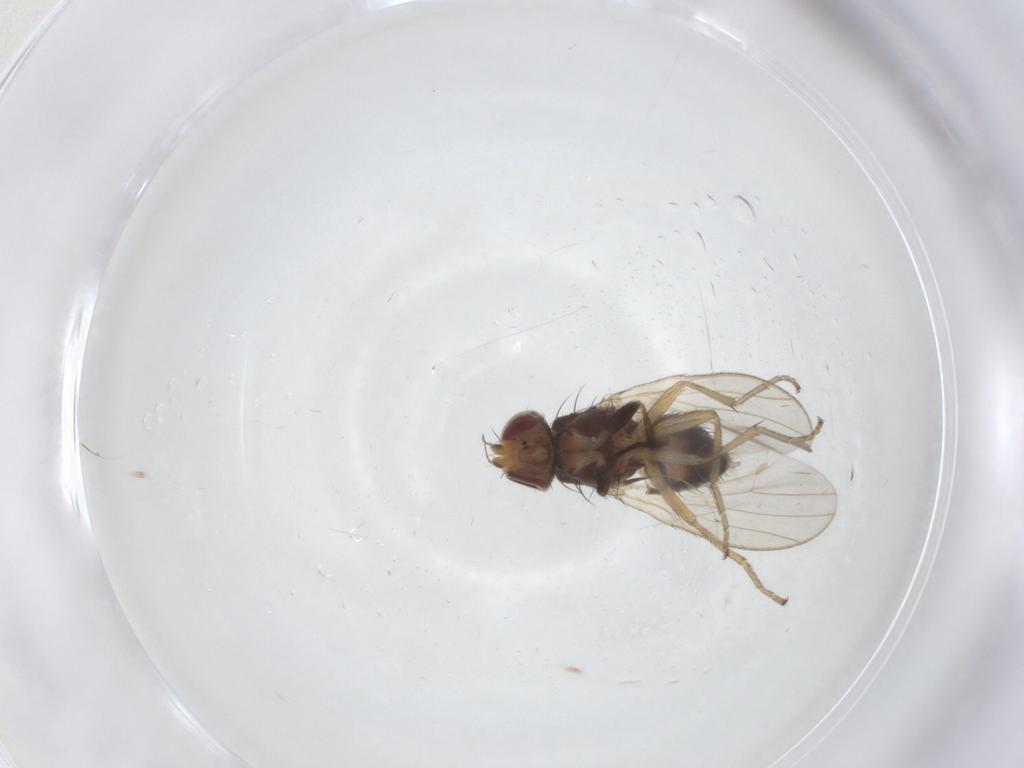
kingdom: Animalia
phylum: Arthropoda
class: Insecta
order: Diptera
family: Heleomyzidae
